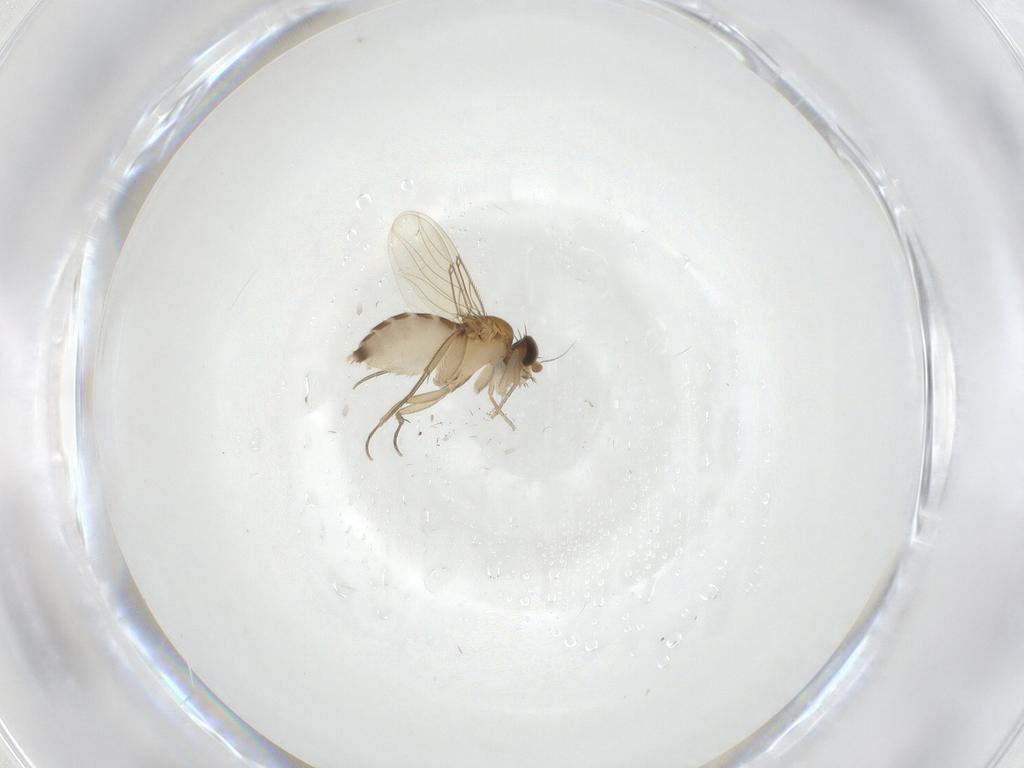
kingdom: Animalia
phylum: Arthropoda
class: Insecta
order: Diptera
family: Phoridae
